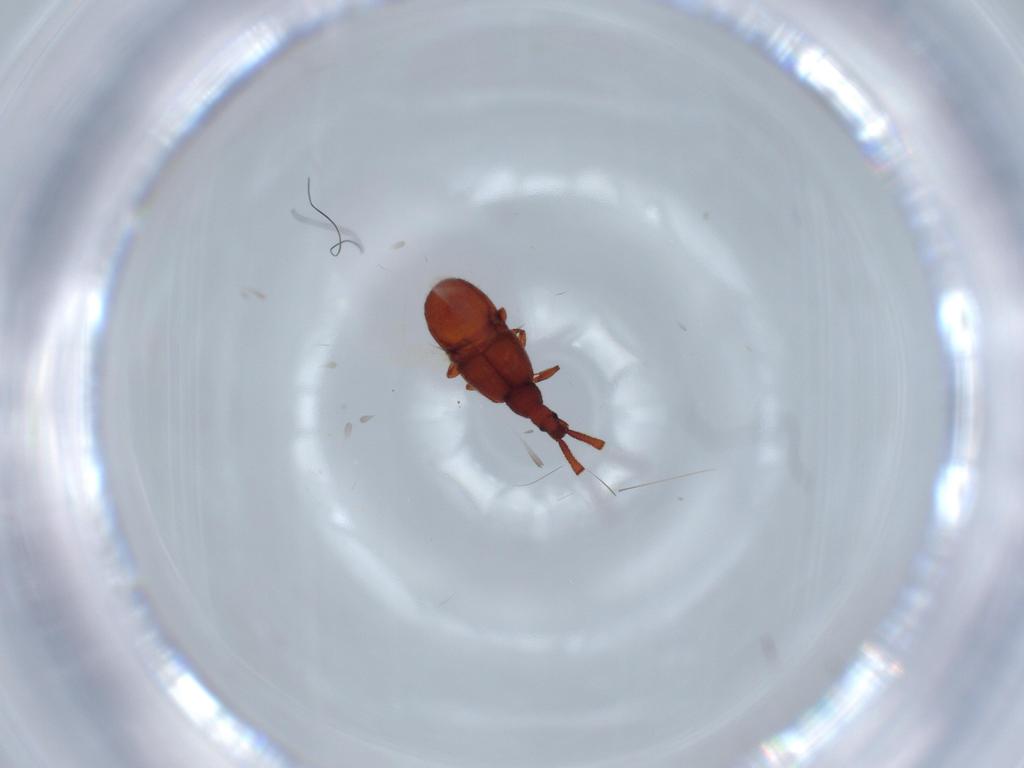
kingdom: Animalia
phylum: Arthropoda
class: Insecta
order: Coleoptera
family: Staphylinidae
